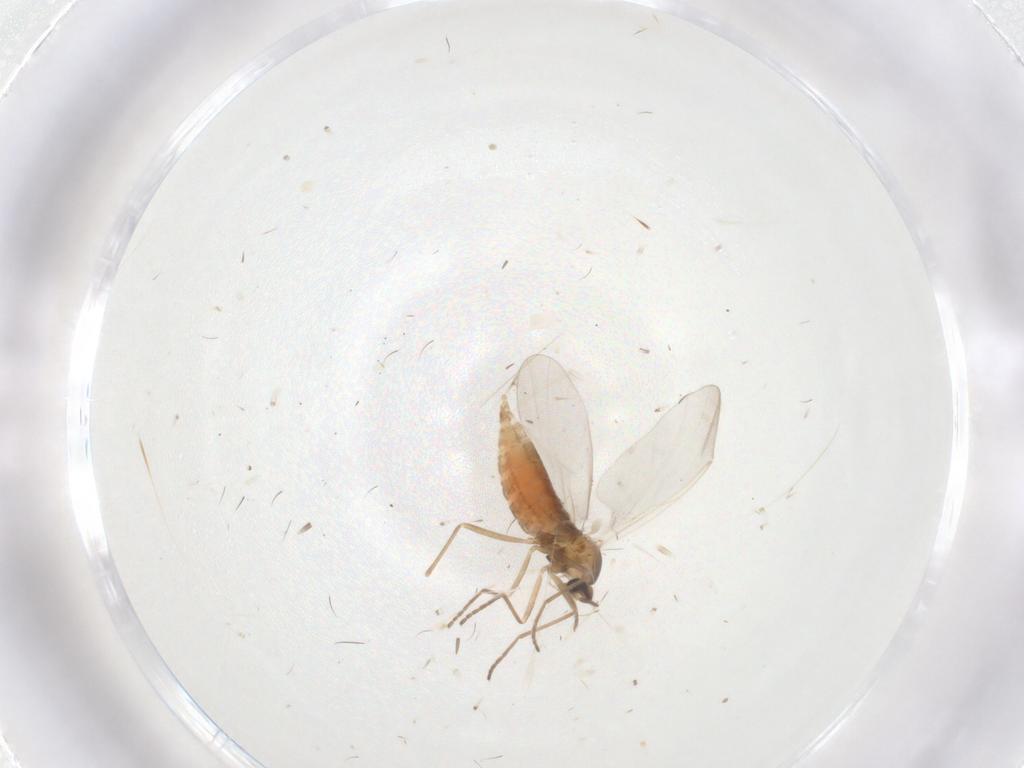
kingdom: Animalia
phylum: Arthropoda
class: Insecta
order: Diptera
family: Cecidomyiidae
